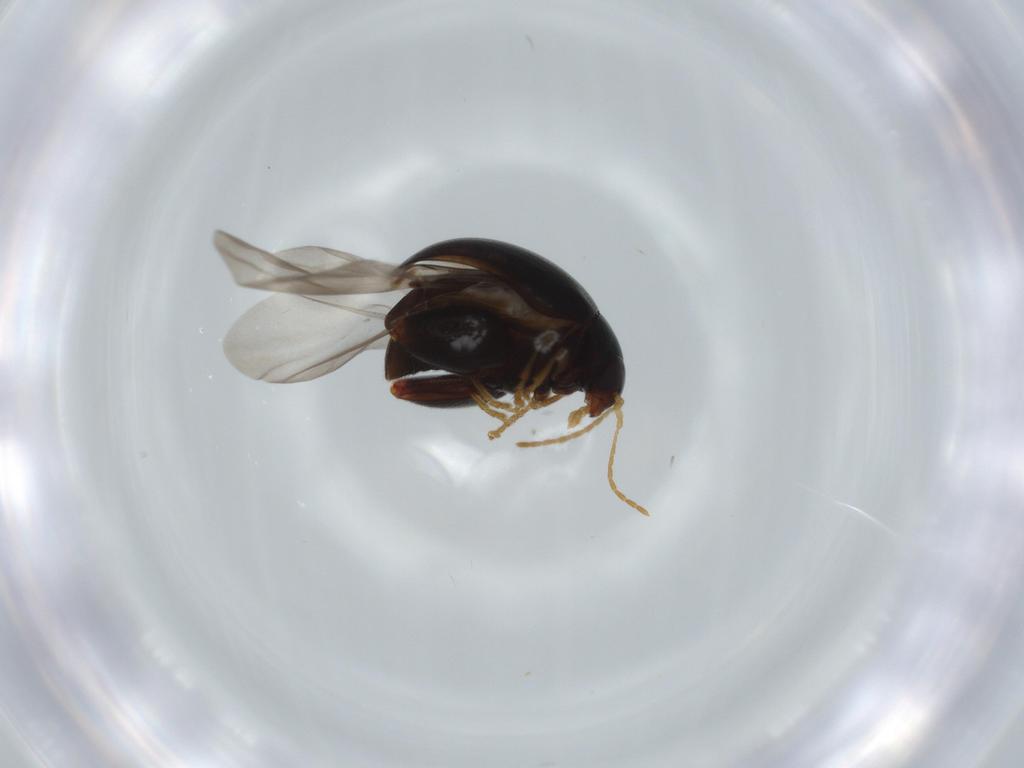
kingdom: Animalia
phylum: Arthropoda
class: Insecta
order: Coleoptera
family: Chrysomelidae
